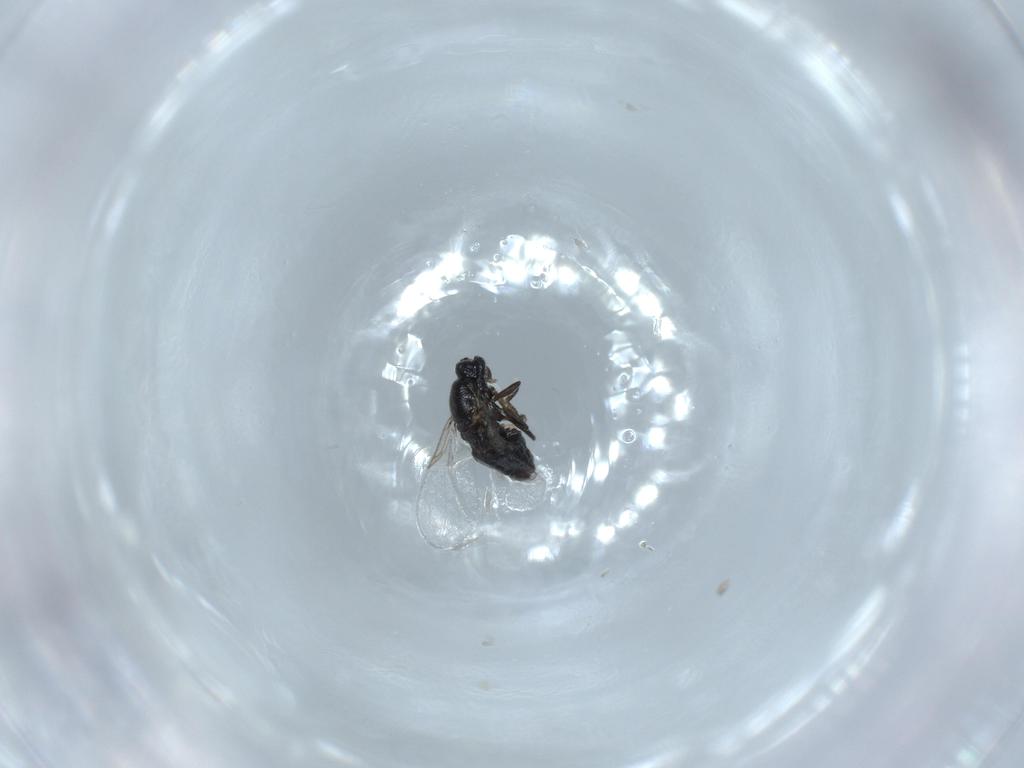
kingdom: Animalia
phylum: Arthropoda
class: Insecta
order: Diptera
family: Scatopsidae
